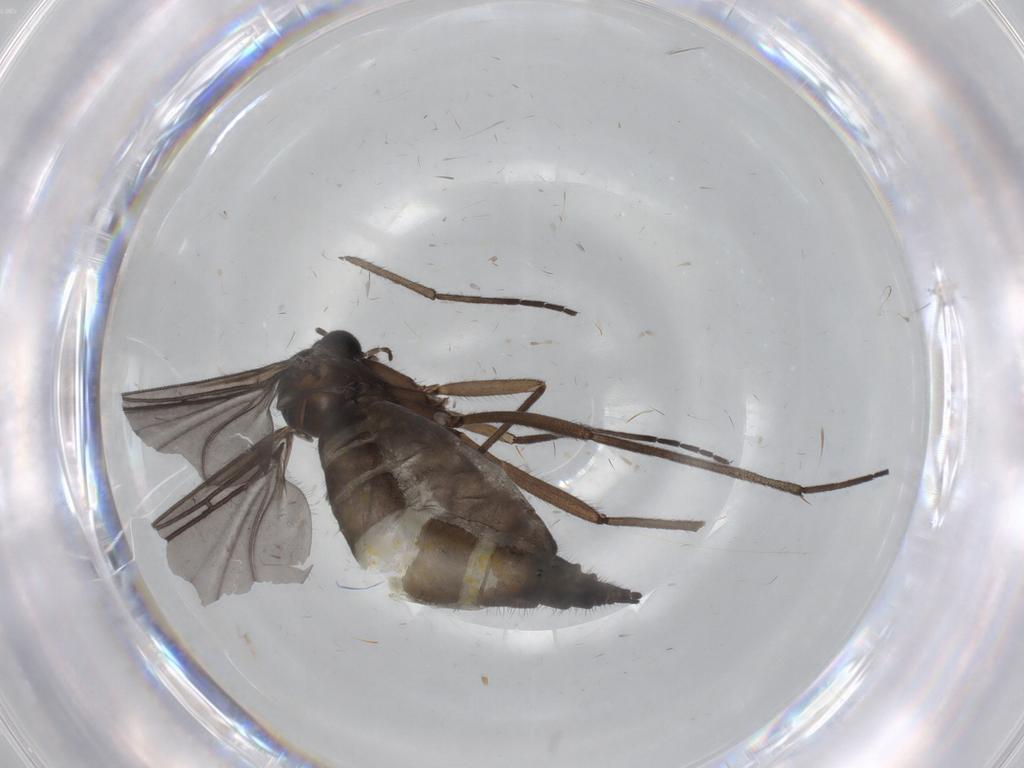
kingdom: Animalia
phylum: Arthropoda
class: Insecta
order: Diptera
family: Sciaridae
